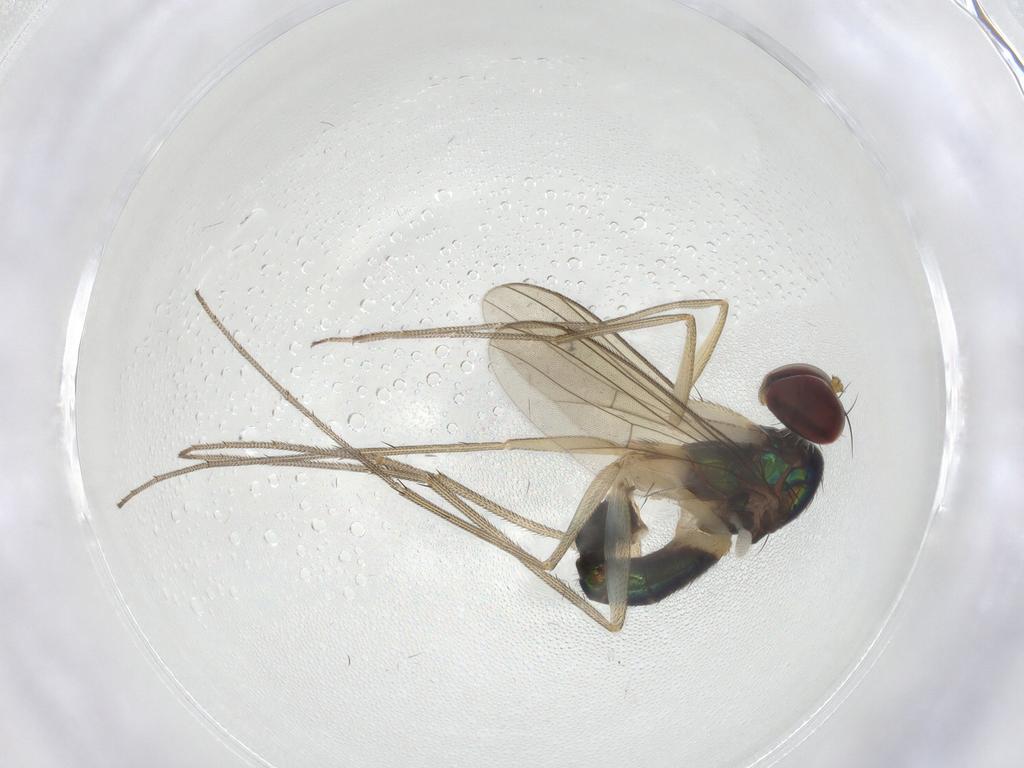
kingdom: Animalia
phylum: Arthropoda
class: Insecta
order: Diptera
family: Dolichopodidae
